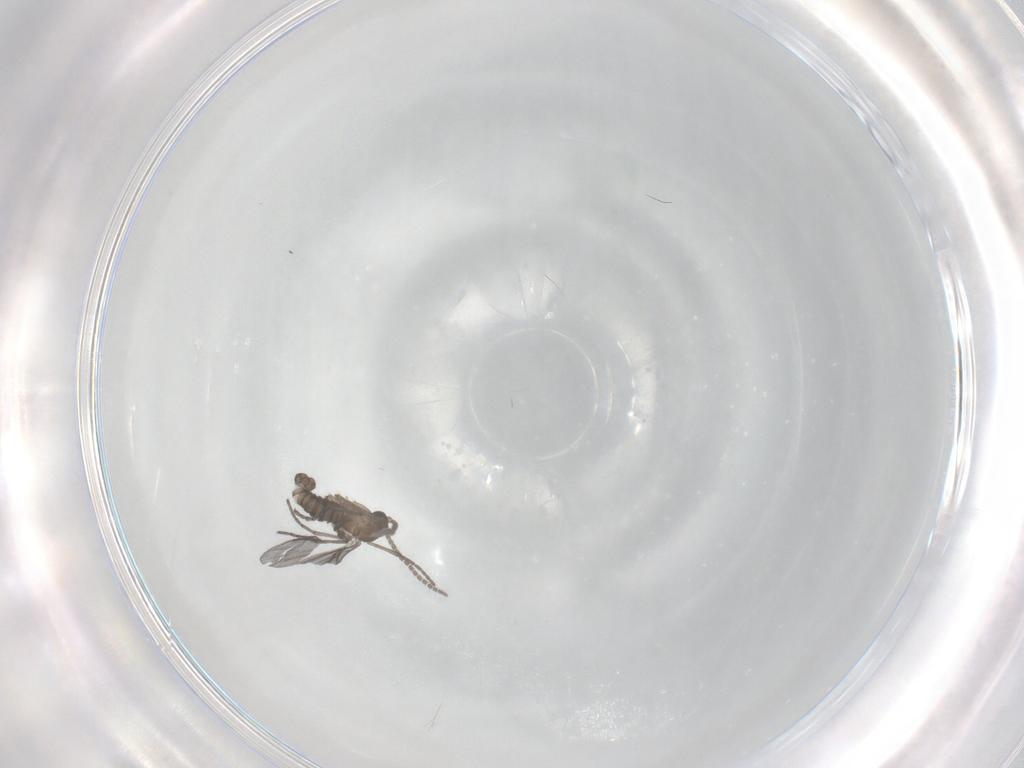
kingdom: Animalia
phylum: Arthropoda
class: Insecta
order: Diptera
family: Sciaridae
